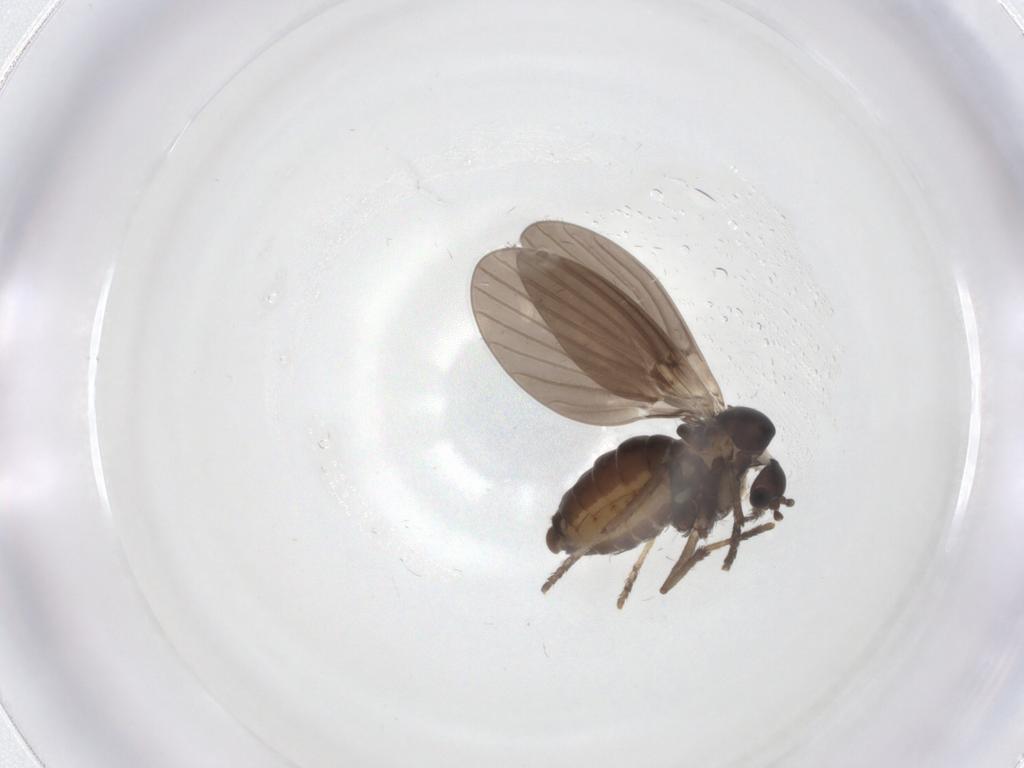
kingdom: Animalia
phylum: Arthropoda
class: Insecta
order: Diptera
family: Psychodidae
